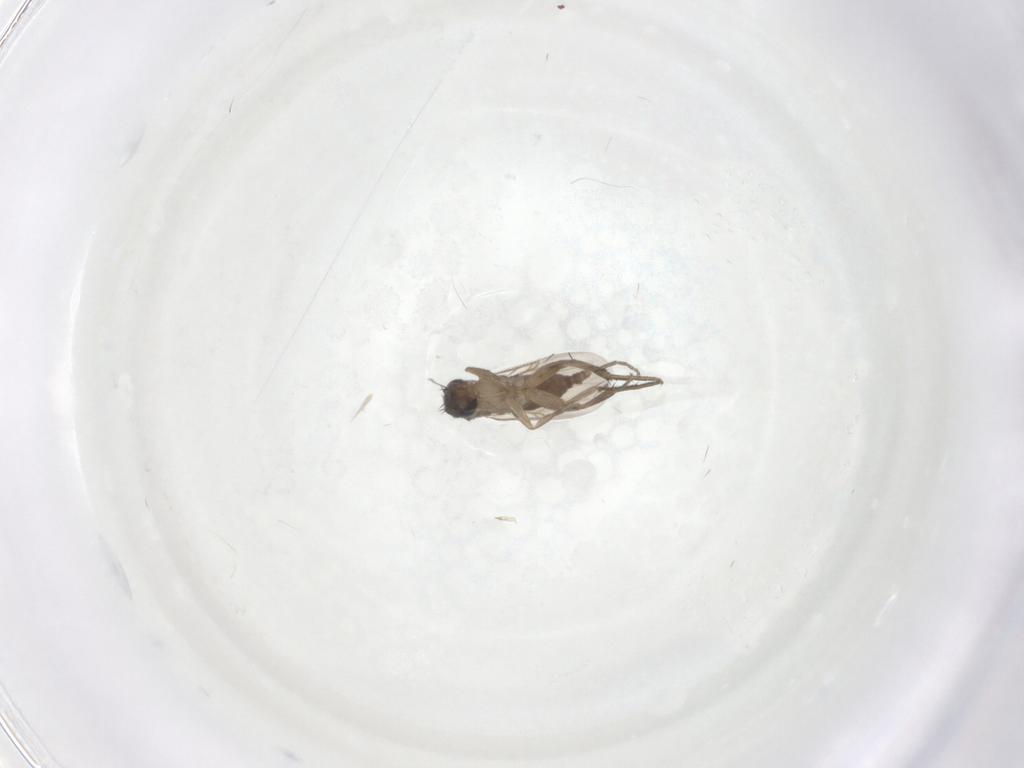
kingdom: Animalia
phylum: Arthropoda
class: Insecta
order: Diptera
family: Phoridae
